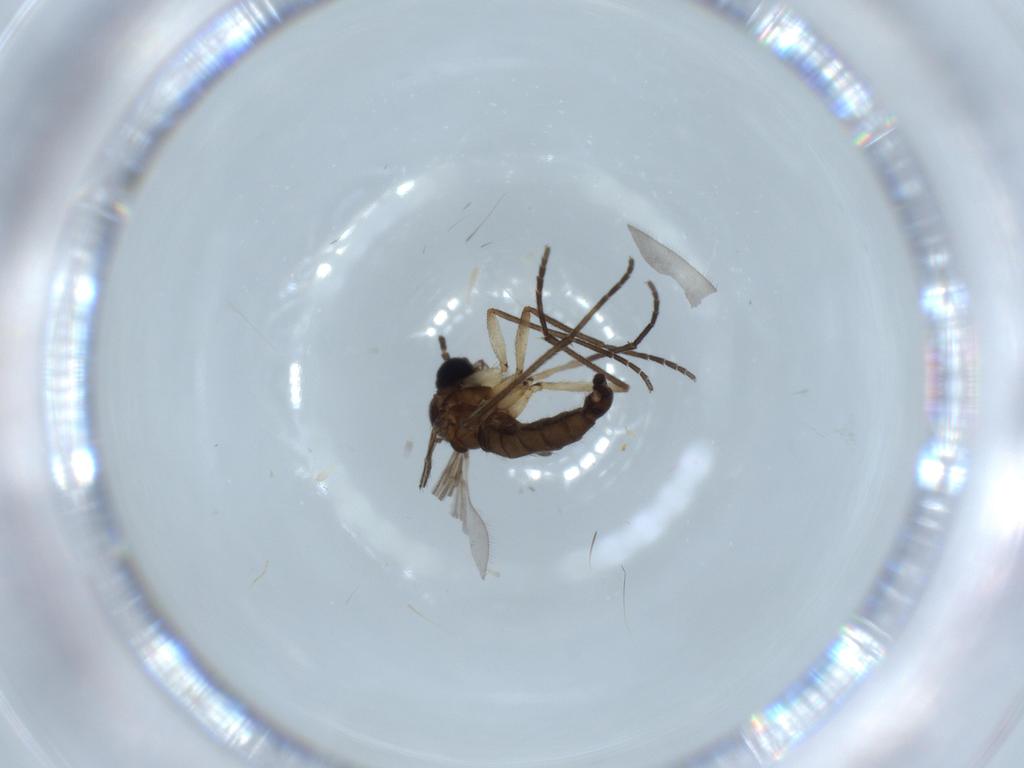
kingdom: Animalia
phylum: Arthropoda
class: Insecta
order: Diptera
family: Sciaridae
